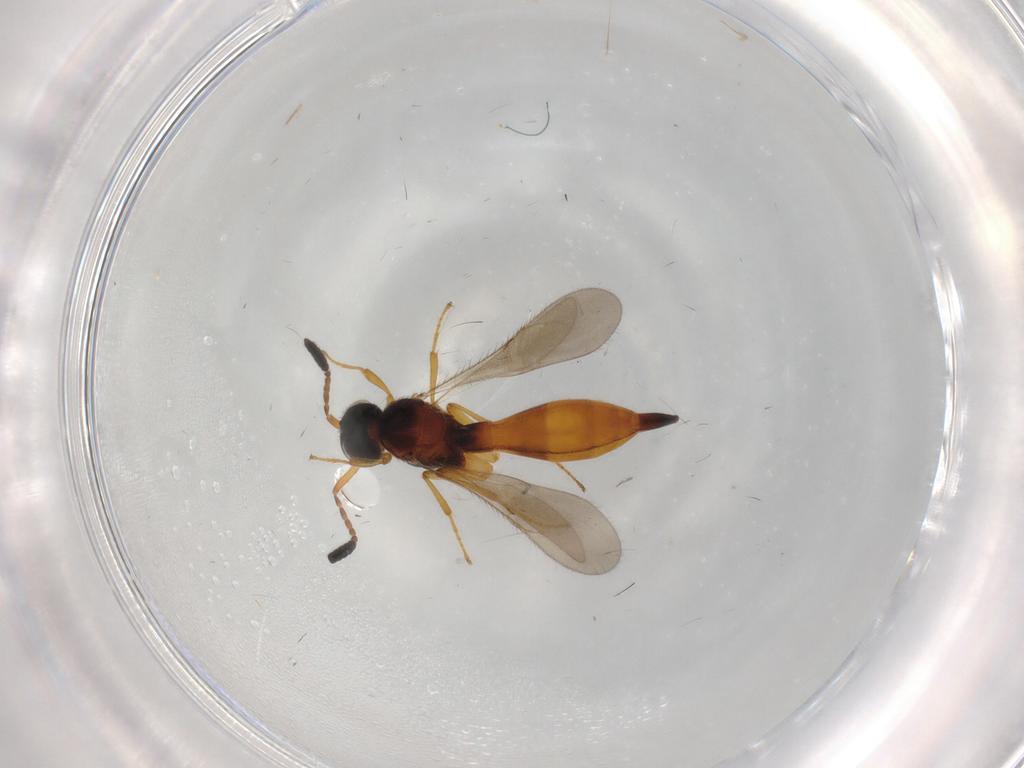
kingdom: Animalia
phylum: Arthropoda
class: Insecta
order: Hymenoptera
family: Scelionidae
